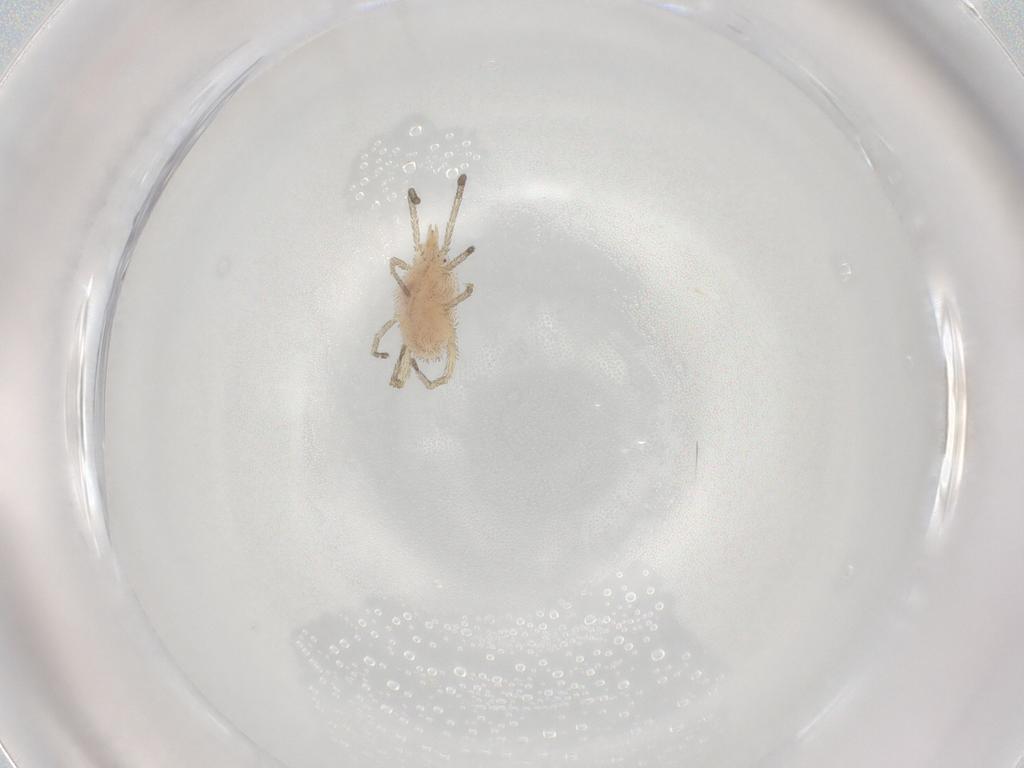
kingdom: Animalia
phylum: Arthropoda
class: Arachnida
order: Trombidiformes
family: Smarididae
